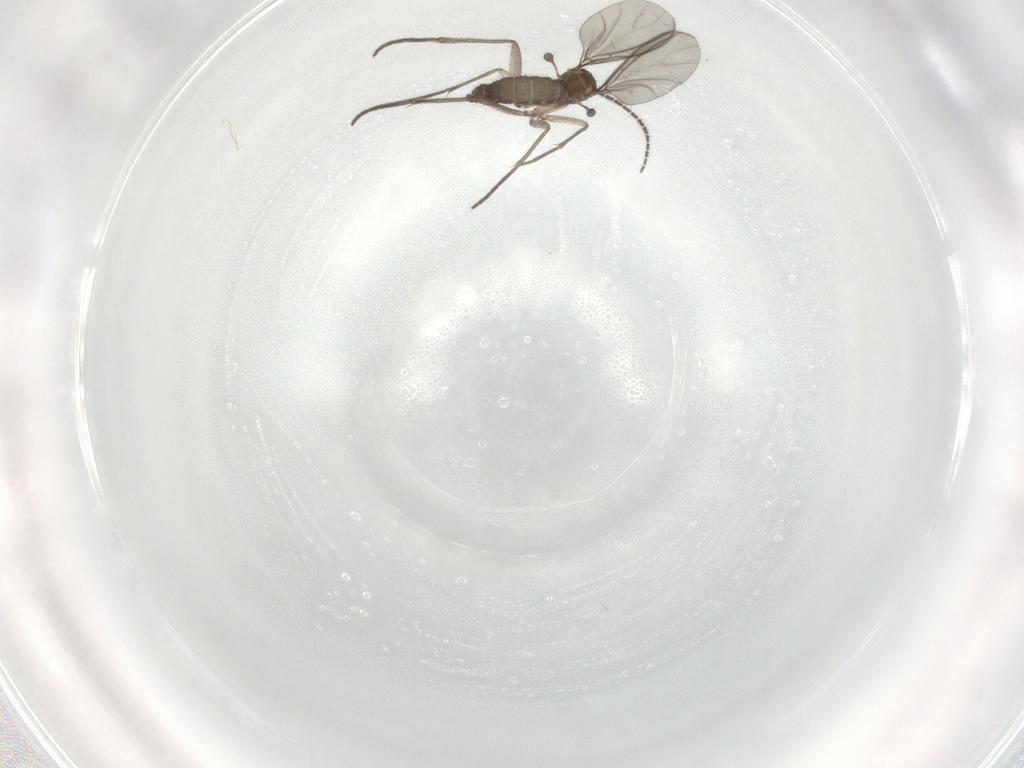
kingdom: Animalia
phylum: Arthropoda
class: Insecta
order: Diptera
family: Sciaridae
